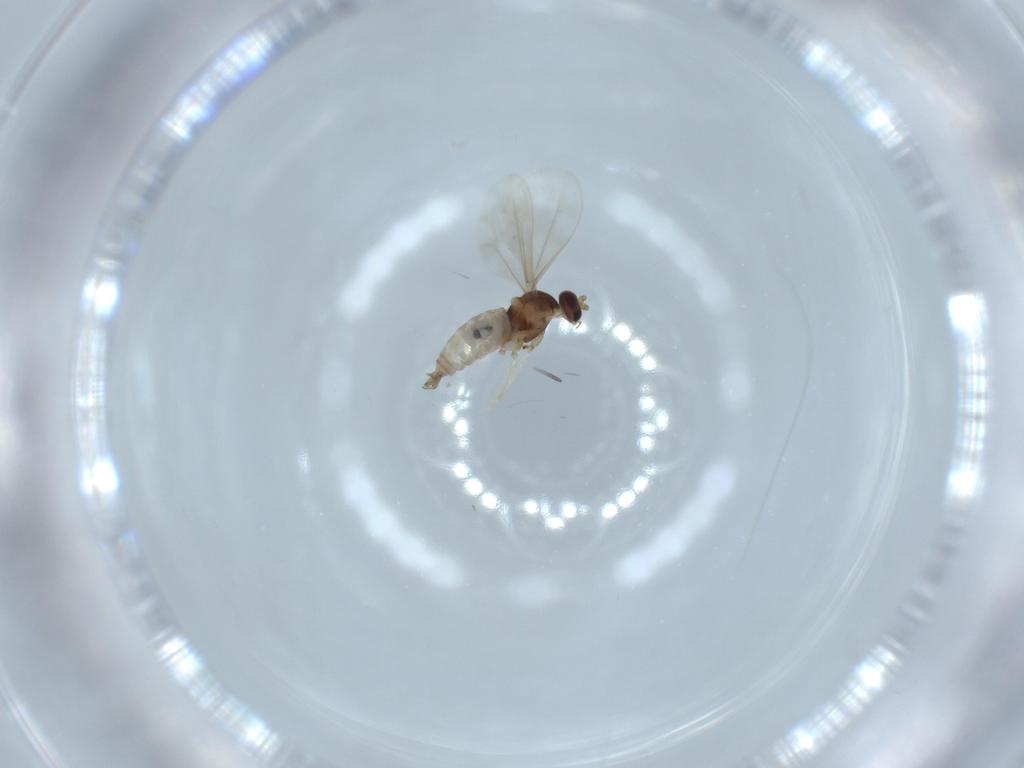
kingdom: Animalia
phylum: Arthropoda
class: Insecta
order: Diptera
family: Cecidomyiidae
